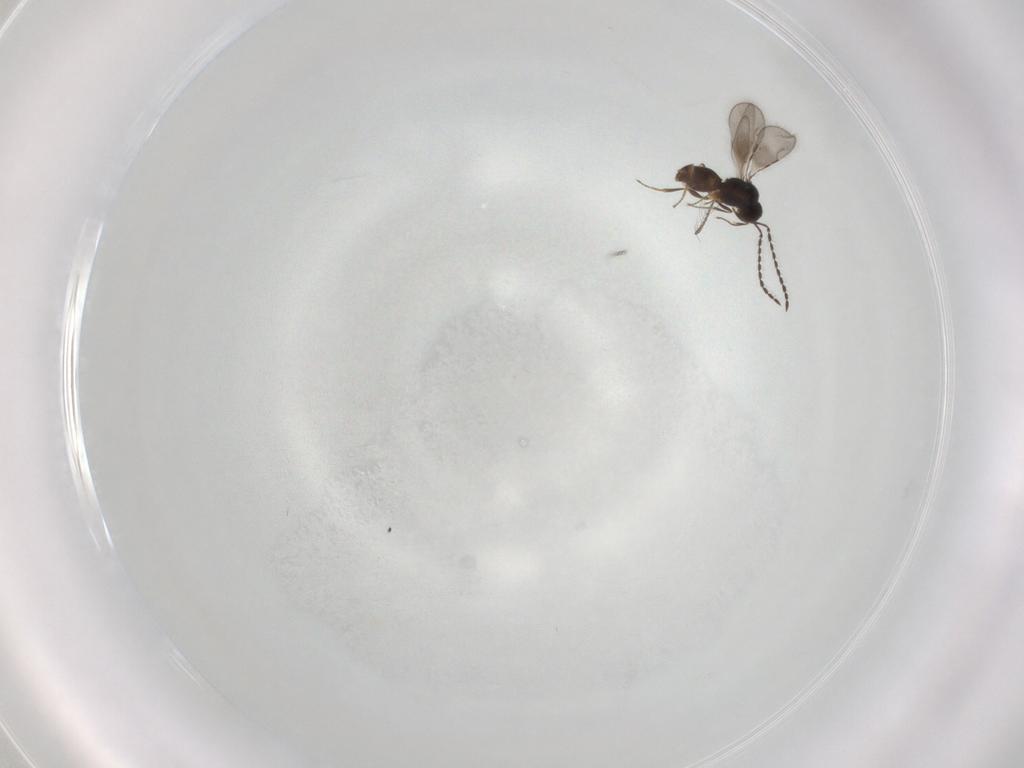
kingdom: Animalia
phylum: Arthropoda
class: Insecta
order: Hymenoptera
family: Ceraphronidae
